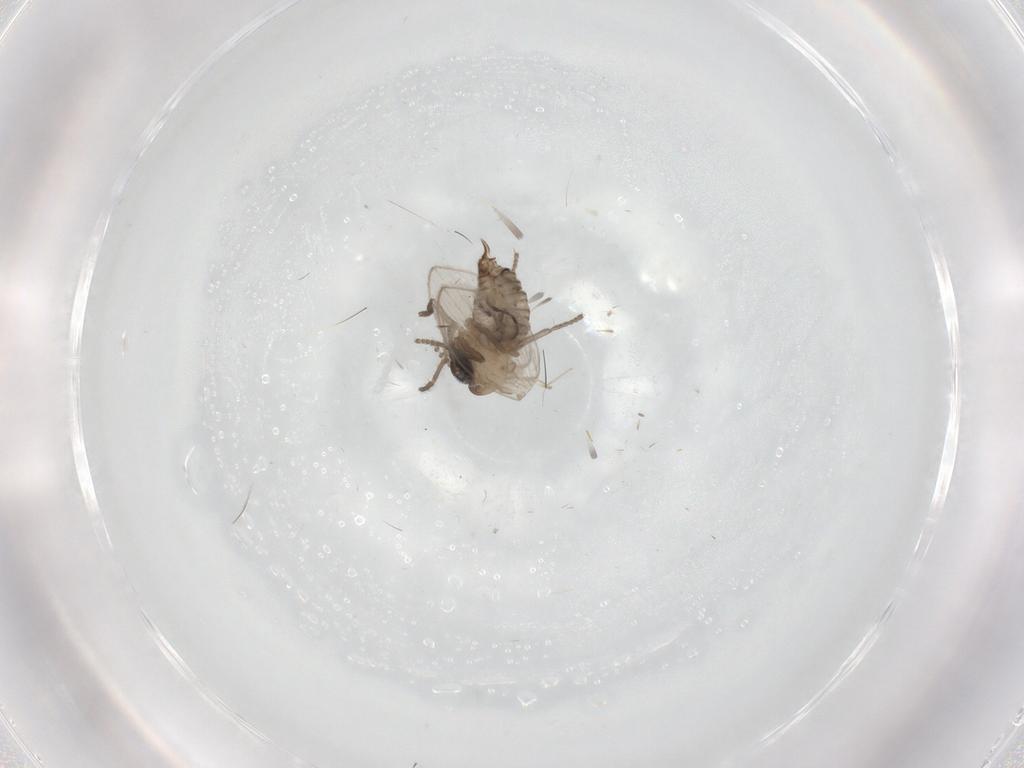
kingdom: Animalia
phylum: Arthropoda
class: Insecta
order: Diptera
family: Psychodidae
